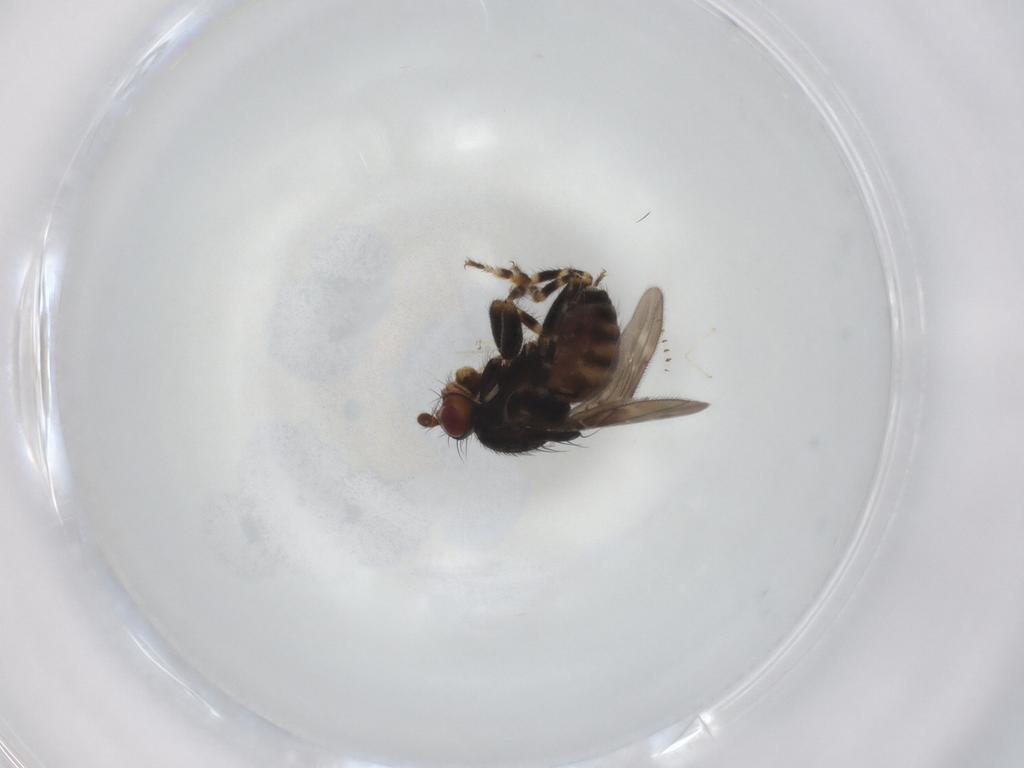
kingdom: Animalia
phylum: Arthropoda
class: Insecta
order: Diptera
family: Sphaeroceridae
